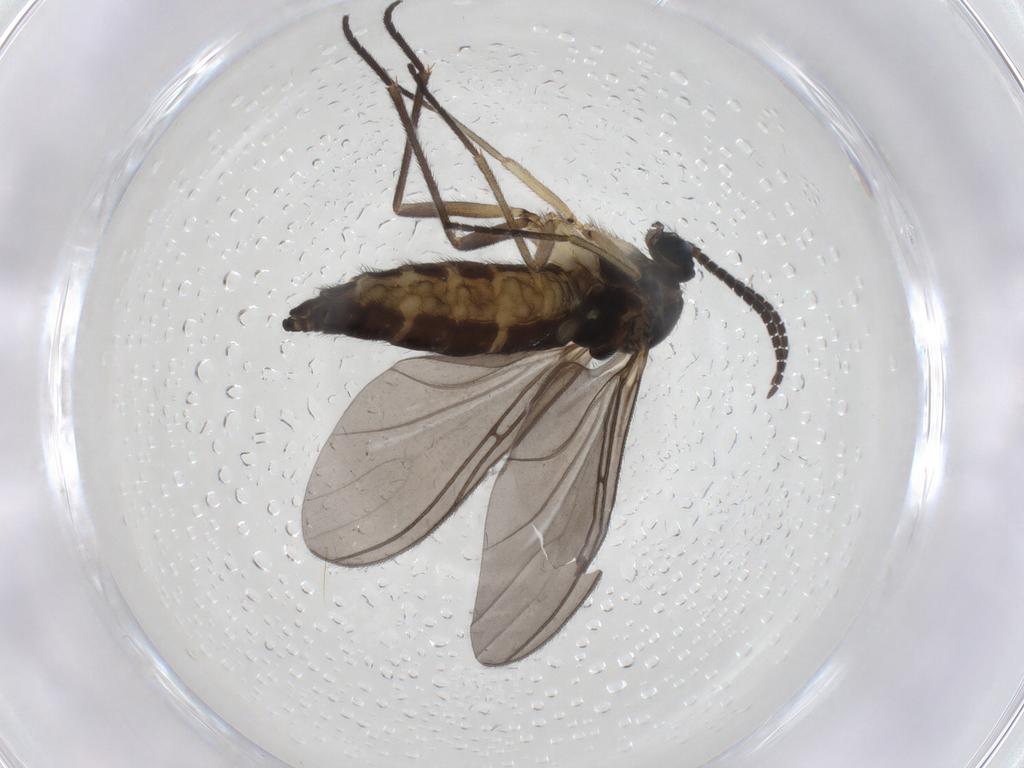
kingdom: Animalia
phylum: Arthropoda
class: Insecta
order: Diptera
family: Sciaridae
